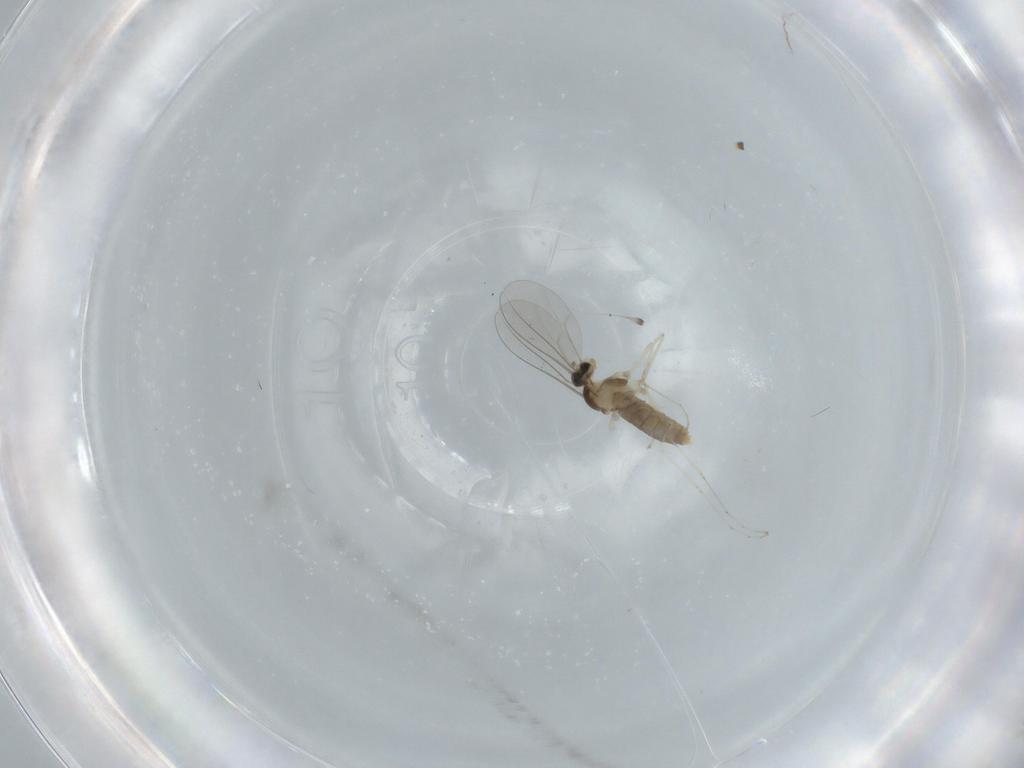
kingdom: Animalia
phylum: Arthropoda
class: Insecta
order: Diptera
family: Cecidomyiidae
